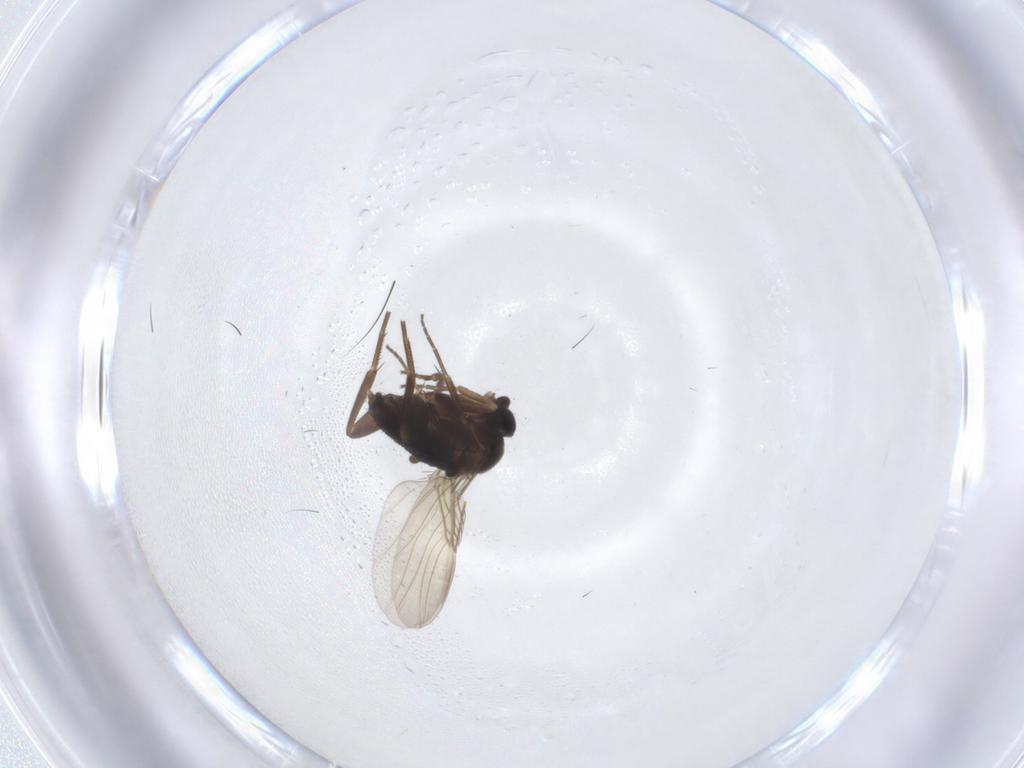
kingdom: Animalia
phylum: Arthropoda
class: Insecta
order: Diptera
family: Phoridae
